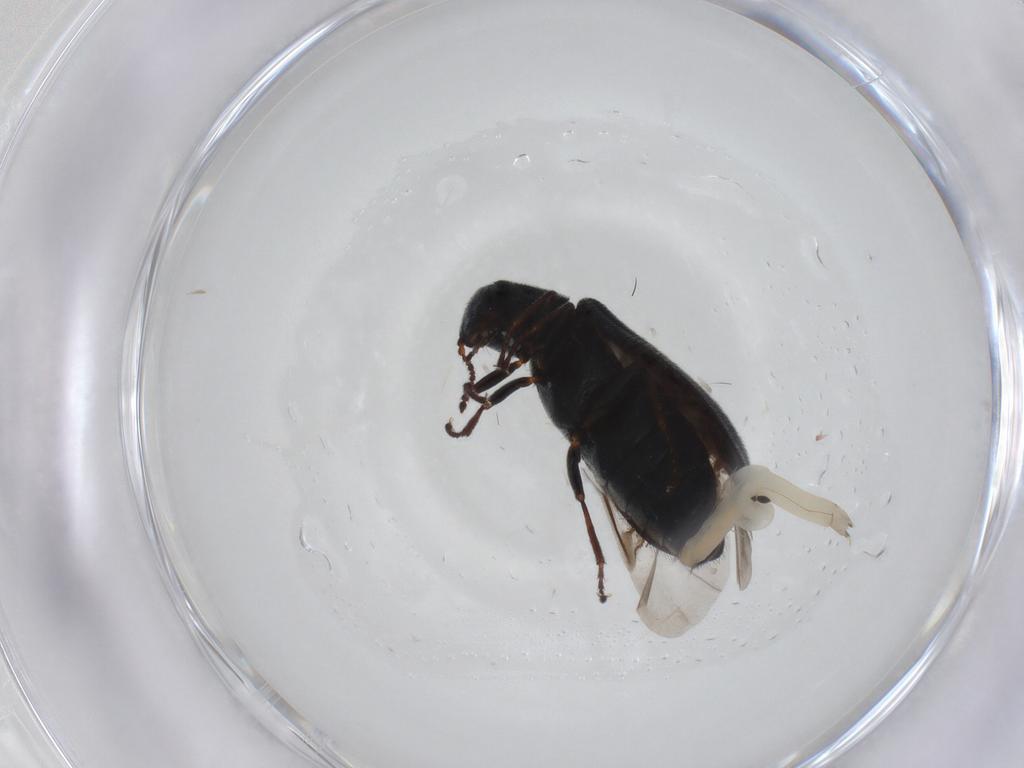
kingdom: Animalia
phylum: Arthropoda
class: Insecta
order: Coleoptera
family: Melyridae
